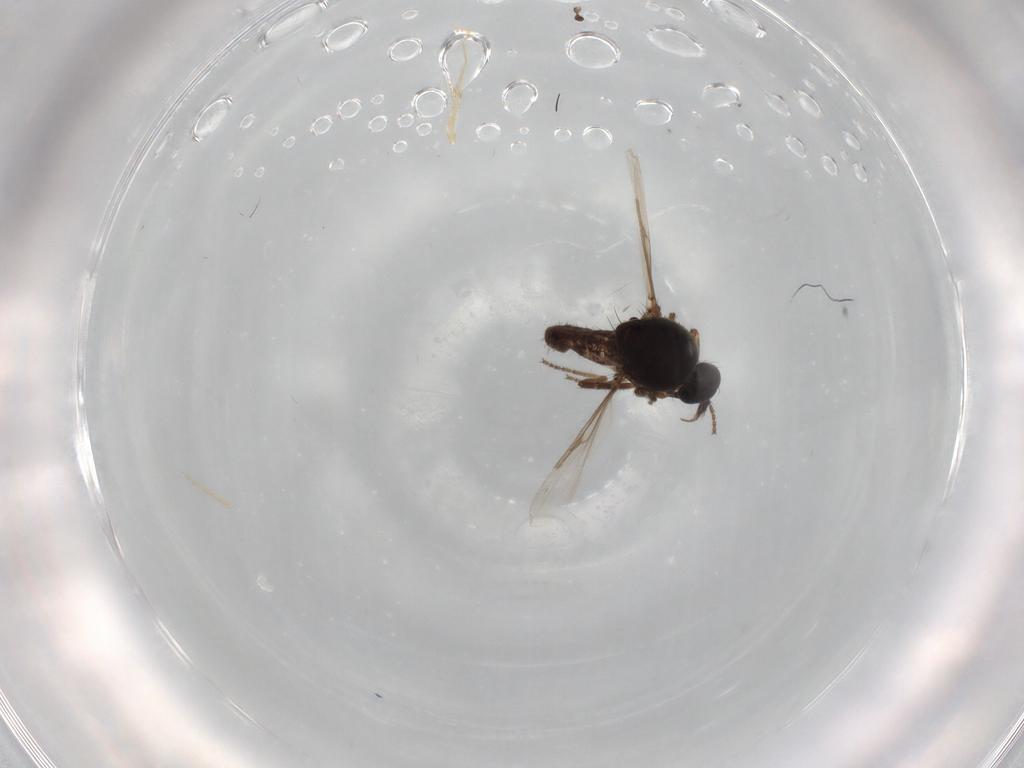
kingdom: Animalia
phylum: Arthropoda
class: Insecta
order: Diptera
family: Ceratopogonidae
